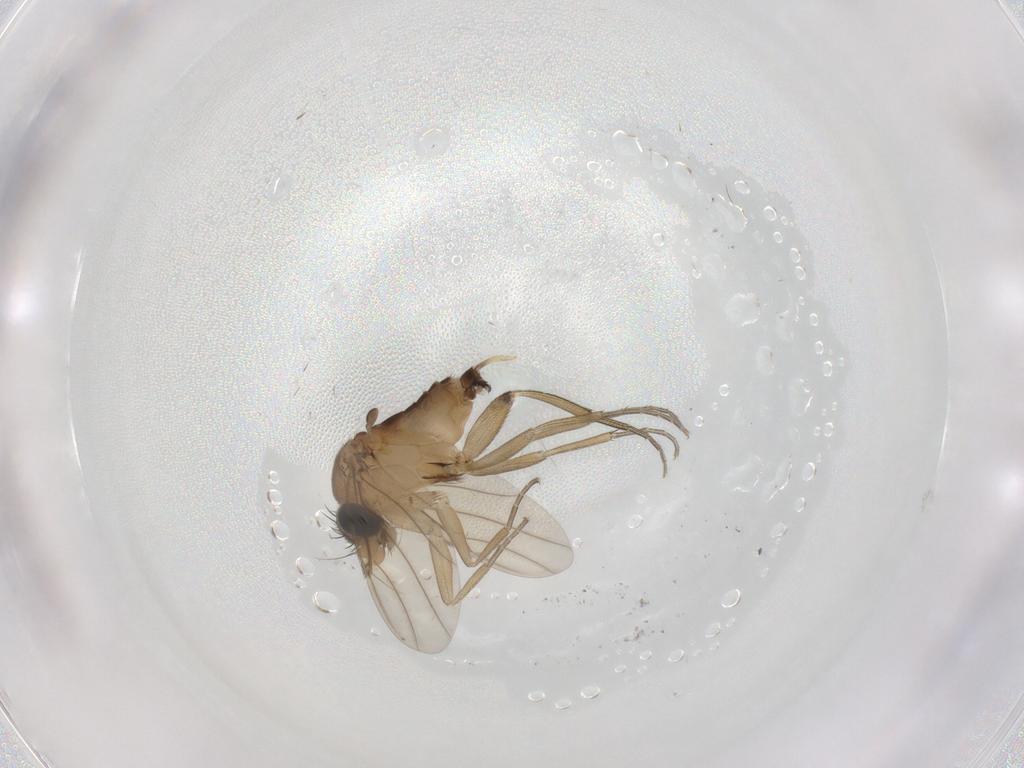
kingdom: Animalia
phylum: Arthropoda
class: Insecta
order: Diptera
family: Phoridae
